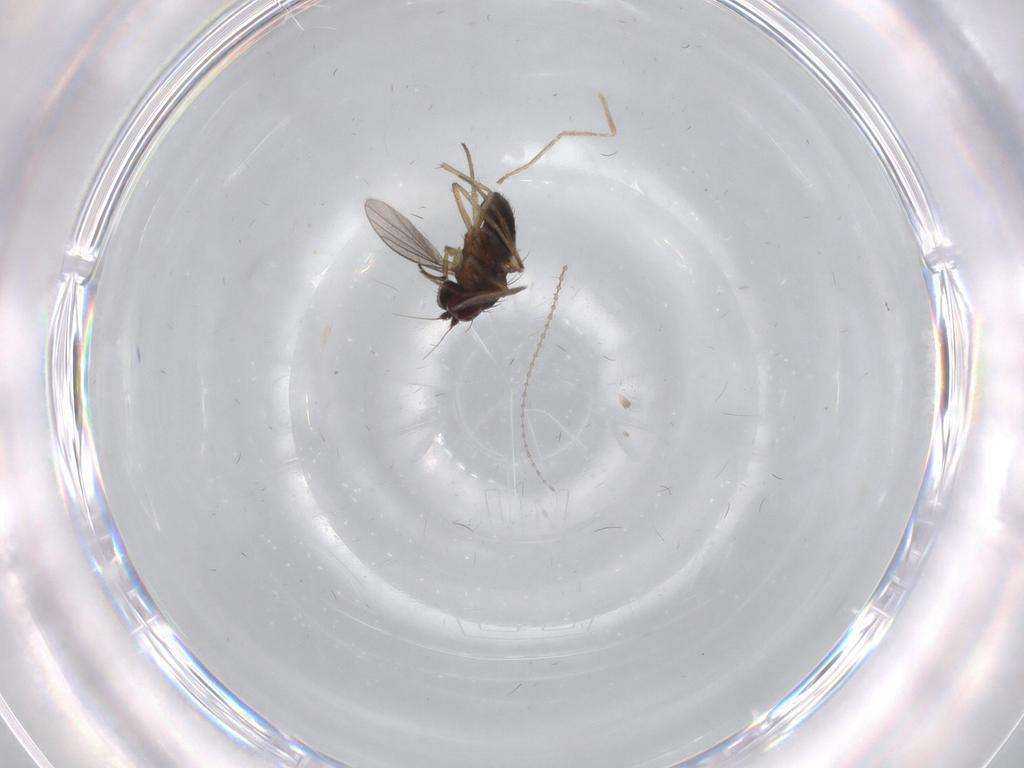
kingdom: Animalia
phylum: Arthropoda
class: Insecta
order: Diptera
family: Dolichopodidae
